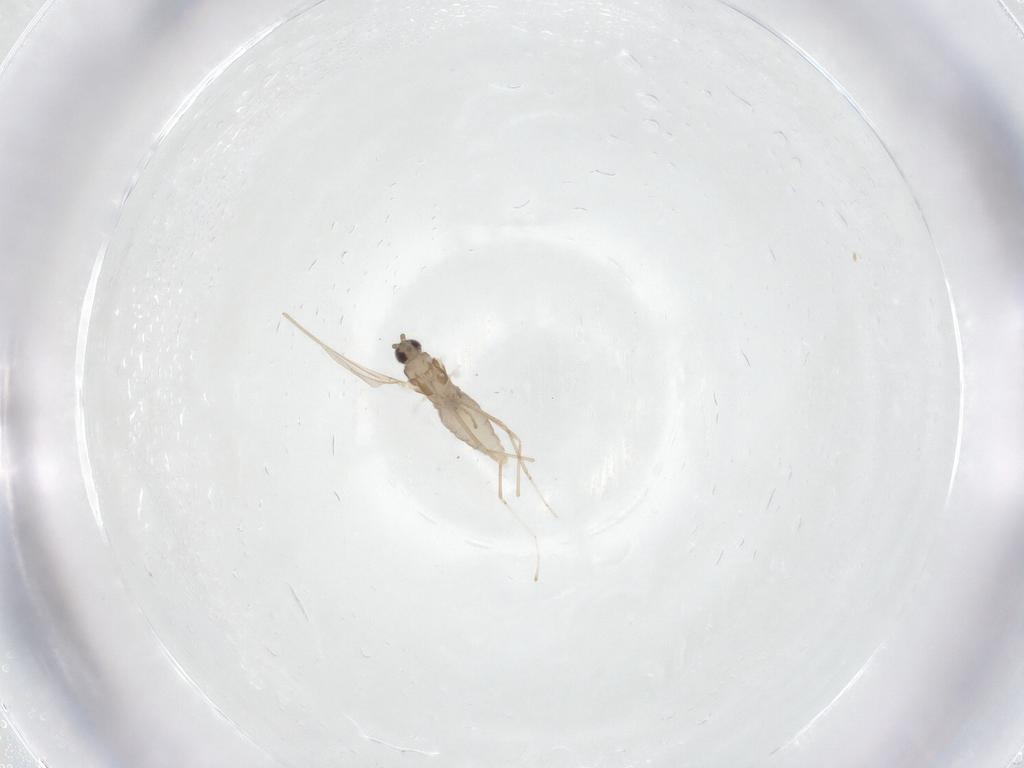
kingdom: Animalia
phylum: Arthropoda
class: Insecta
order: Diptera
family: Cecidomyiidae
